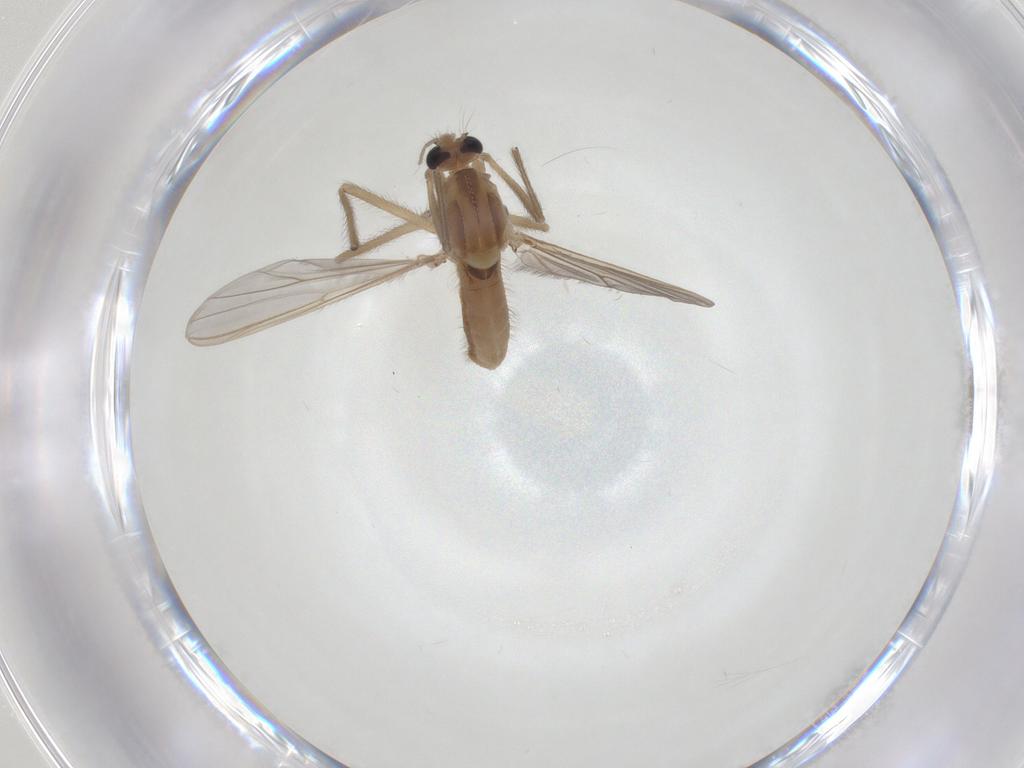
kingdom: Animalia
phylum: Arthropoda
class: Insecta
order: Diptera
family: Chironomidae
